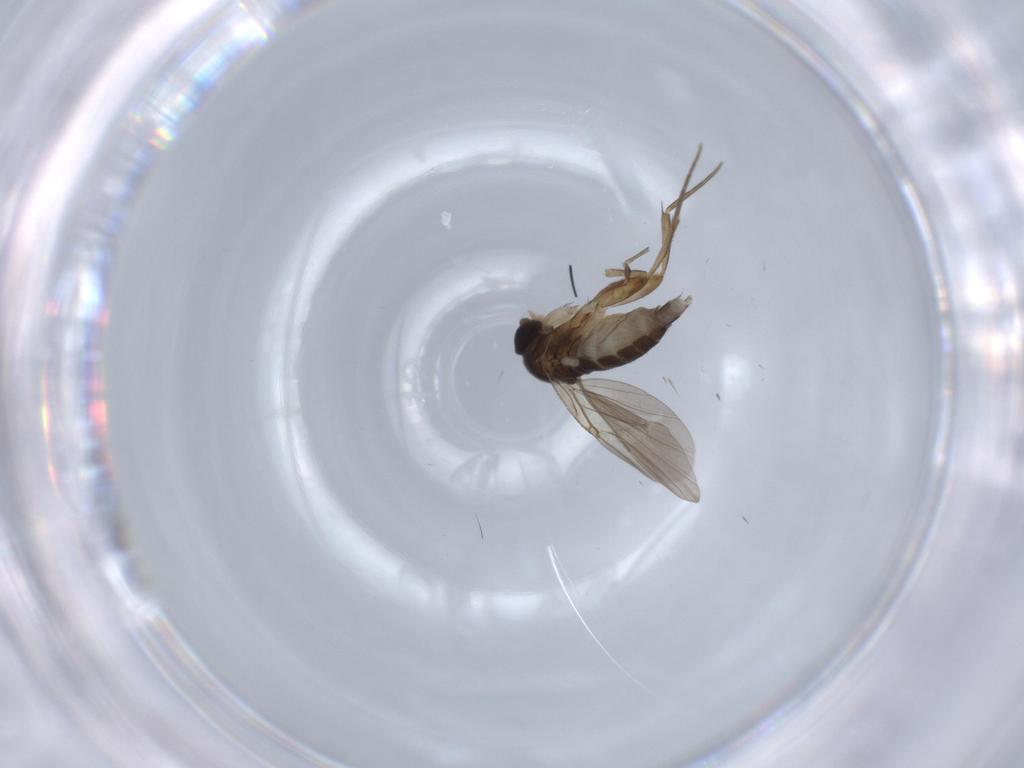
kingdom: Animalia
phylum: Arthropoda
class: Insecta
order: Diptera
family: Phoridae
